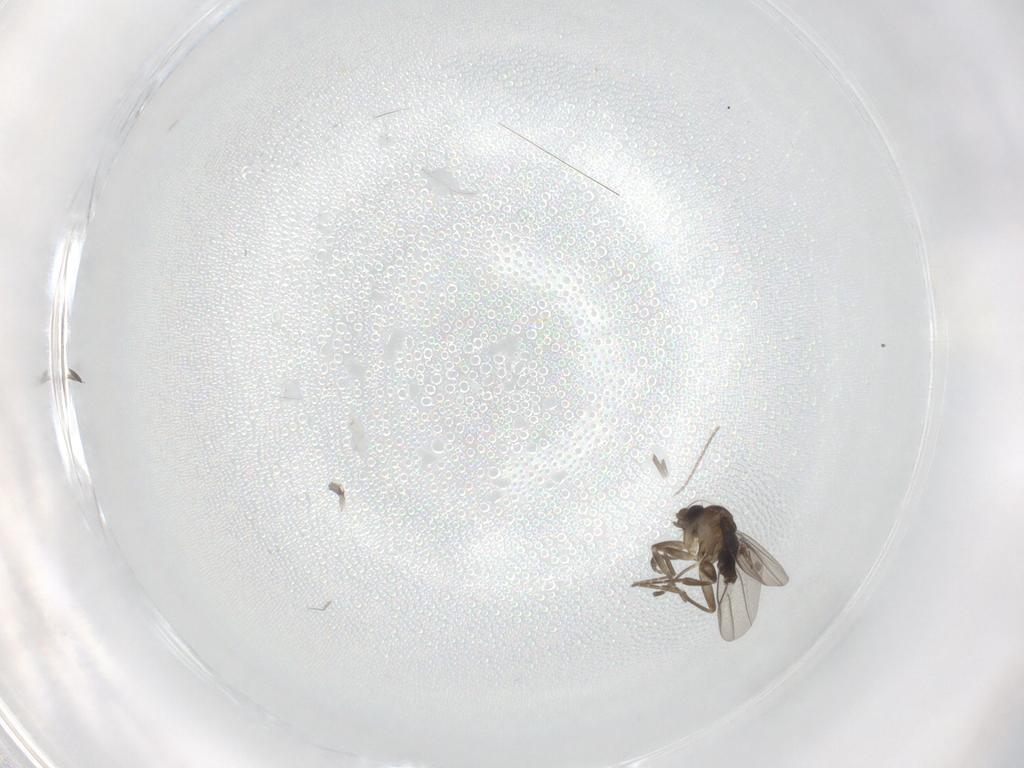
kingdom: Animalia
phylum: Arthropoda
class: Insecta
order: Diptera
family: Phoridae
